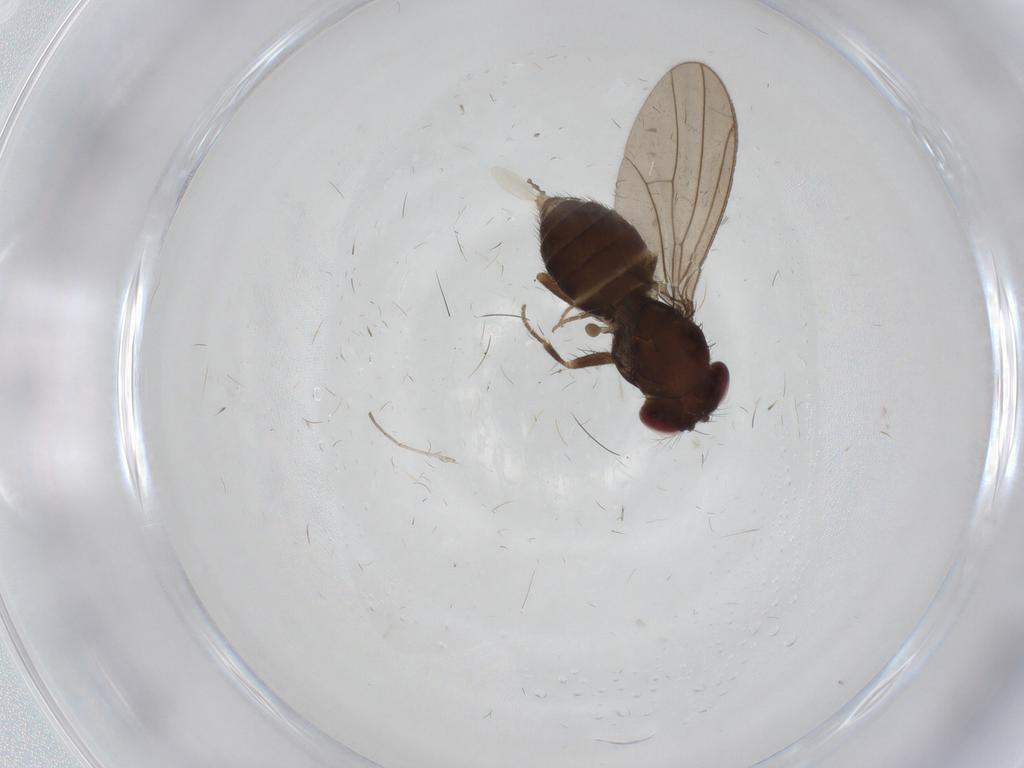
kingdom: Animalia
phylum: Arthropoda
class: Insecta
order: Diptera
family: Drosophilidae
